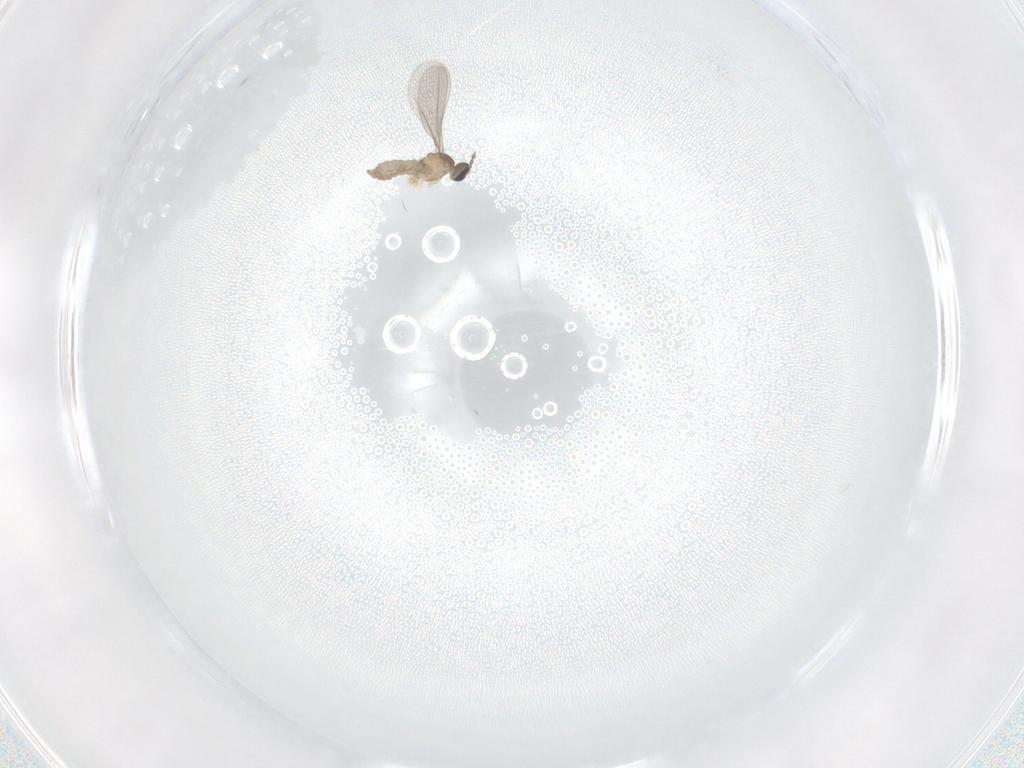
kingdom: Animalia
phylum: Arthropoda
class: Insecta
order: Diptera
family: Phoridae
